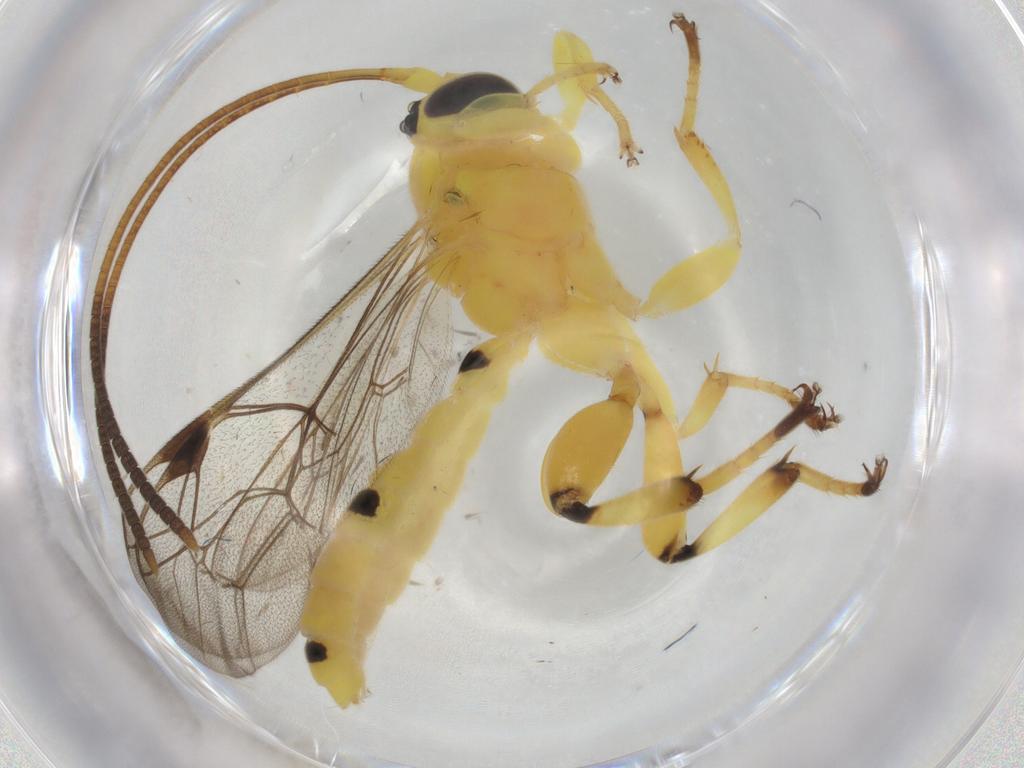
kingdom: Animalia
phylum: Arthropoda
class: Insecta
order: Hymenoptera
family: Ichneumonidae
